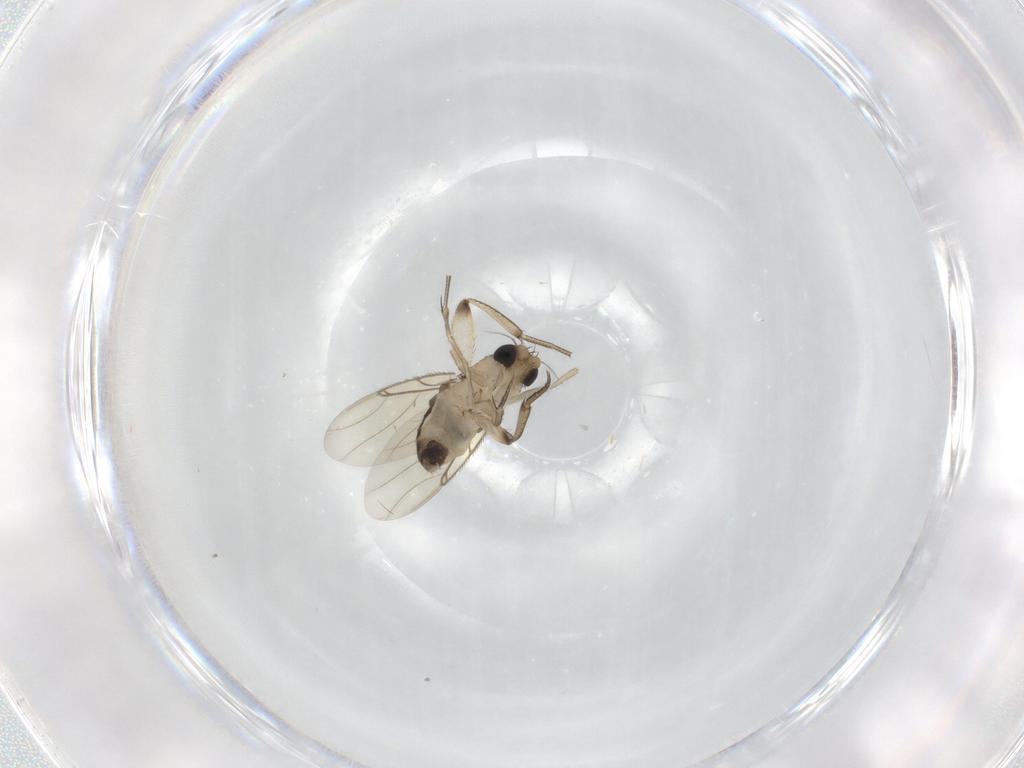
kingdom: Animalia
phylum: Arthropoda
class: Insecta
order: Diptera
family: Phoridae
